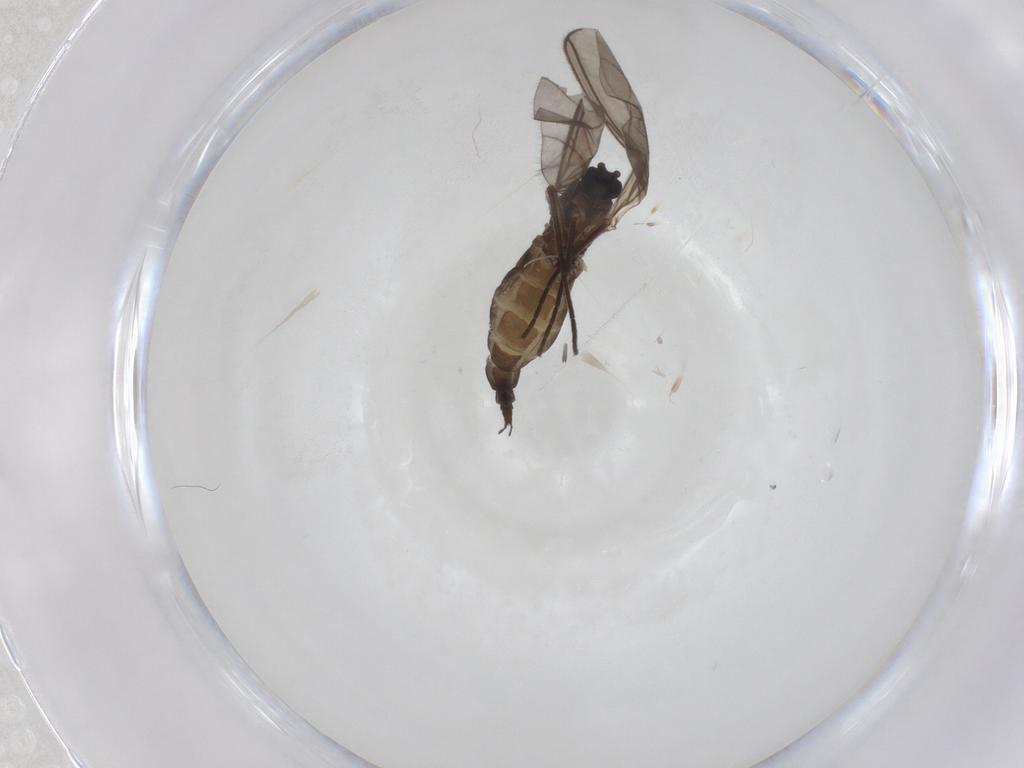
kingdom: Animalia
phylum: Arthropoda
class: Insecta
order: Diptera
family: Sciaridae
